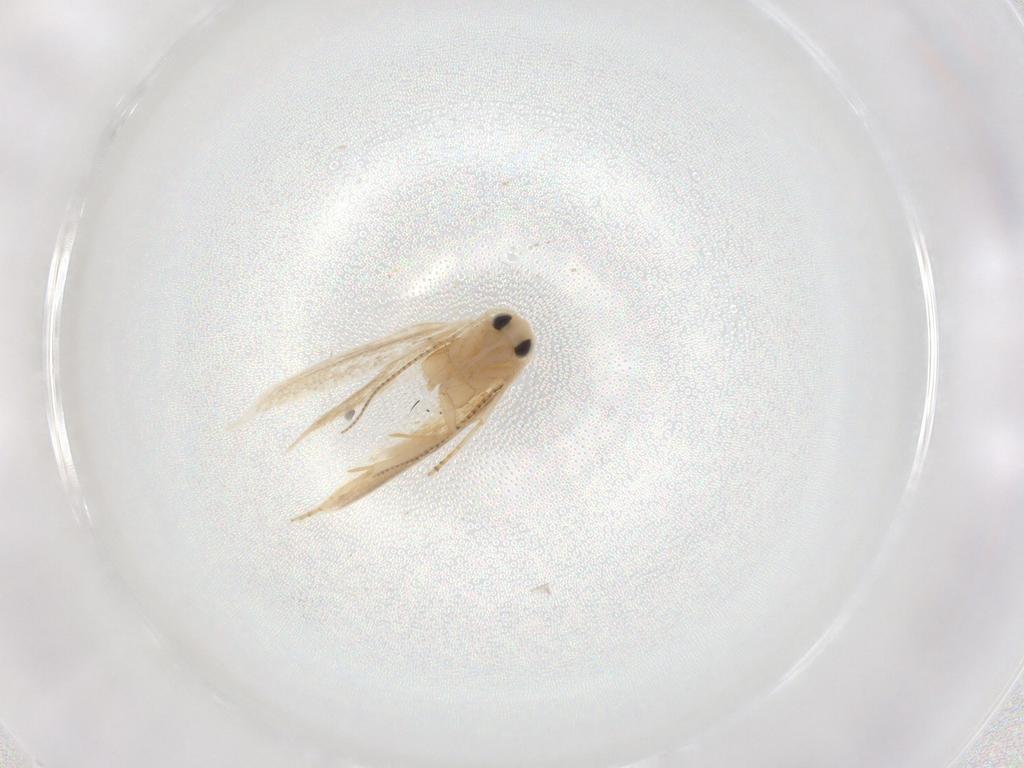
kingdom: Animalia
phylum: Arthropoda
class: Insecta
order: Lepidoptera
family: Bucculatricidae
